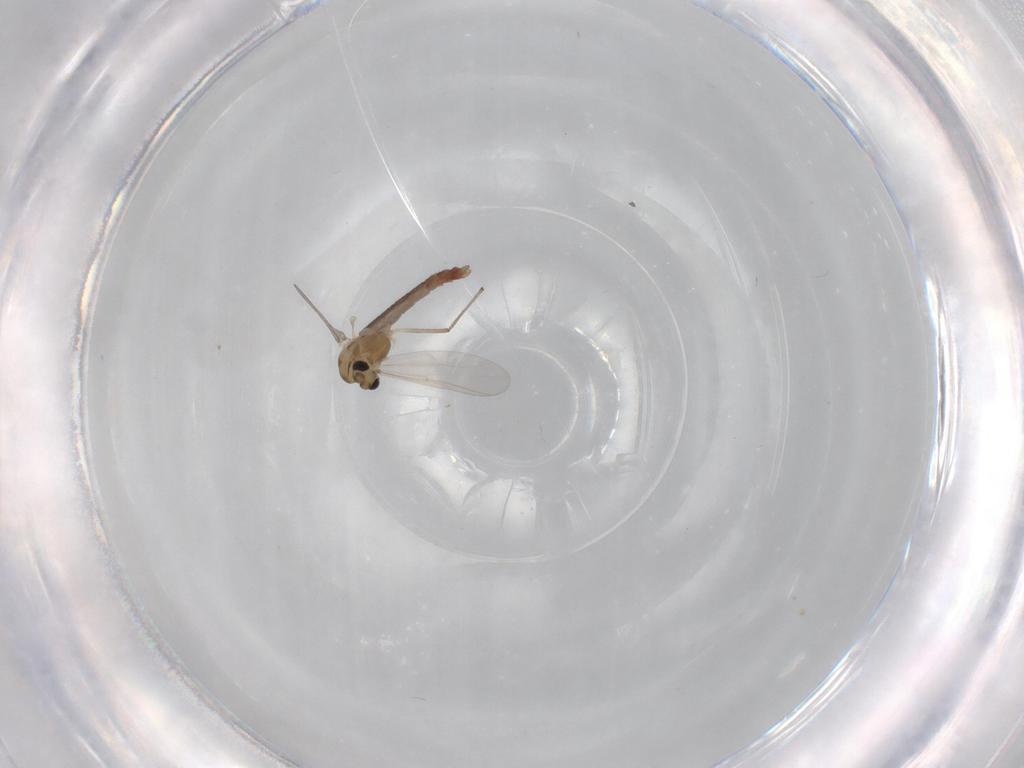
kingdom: Animalia
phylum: Arthropoda
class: Insecta
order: Diptera
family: Chironomidae
